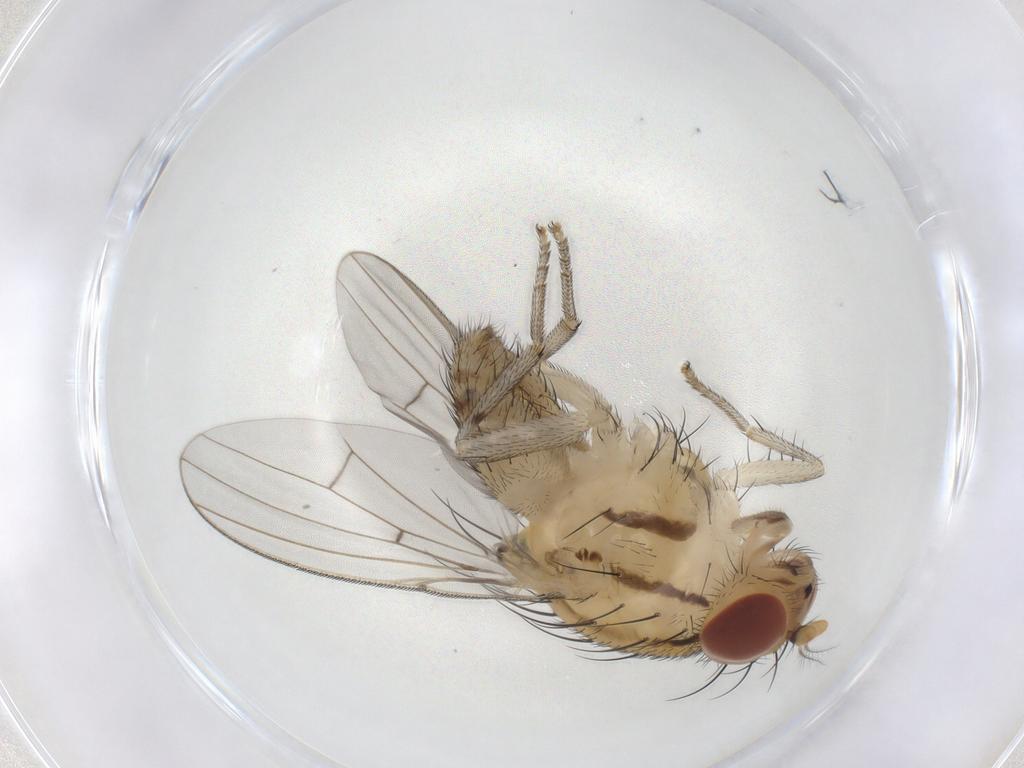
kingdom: Animalia
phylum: Arthropoda
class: Insecta
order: Diptera
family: Lauxaniidae
